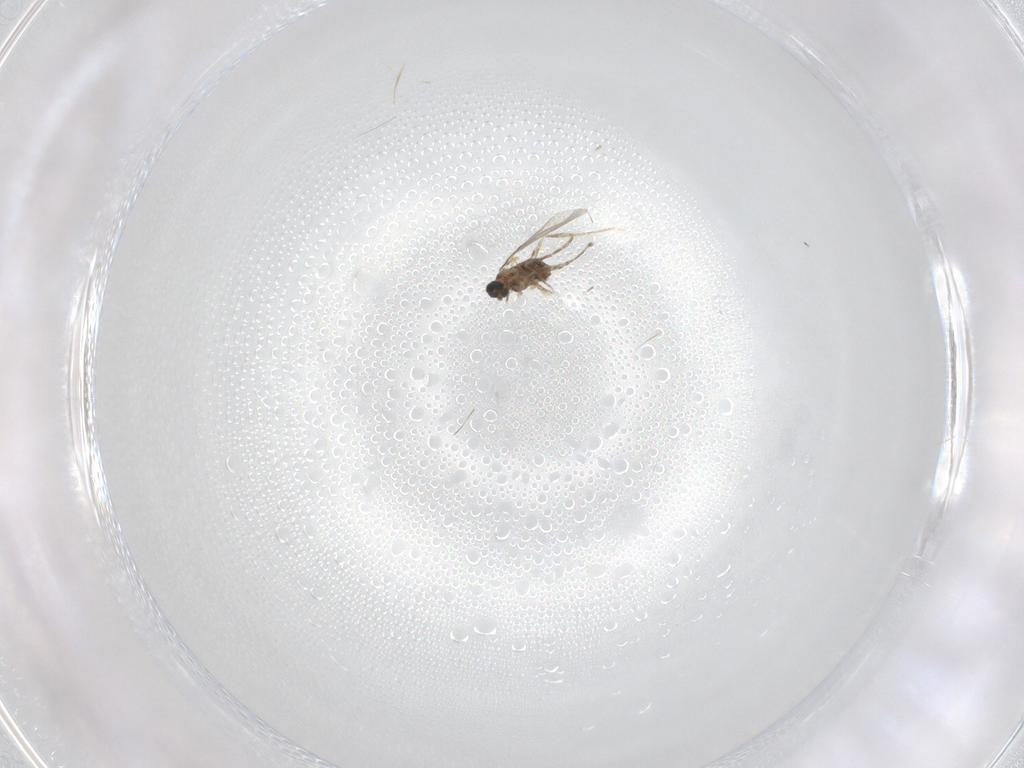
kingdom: Animalia
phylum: Arthropoda
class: Insecta
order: Diptera
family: Cecidomyiidae
